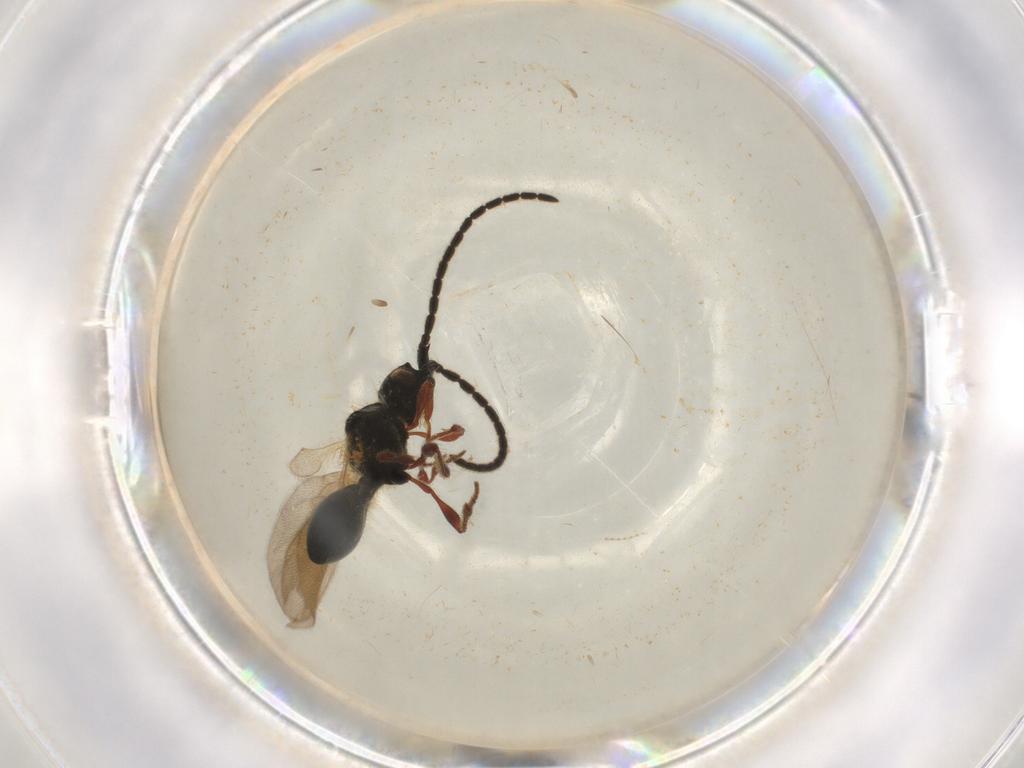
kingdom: Animalia
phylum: Arthropoda
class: Insecta
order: Hymenoptera
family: Diapriidae
